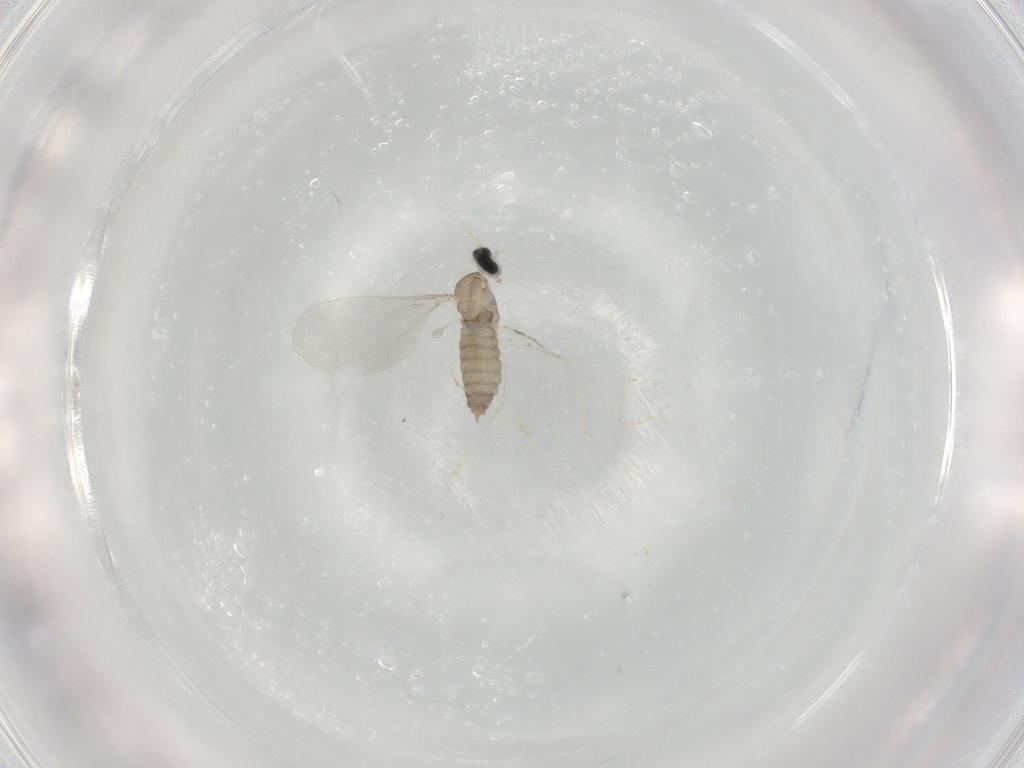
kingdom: Animalia
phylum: Arthropoda
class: Insecta
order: Diptera
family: Cecidomyiidae
